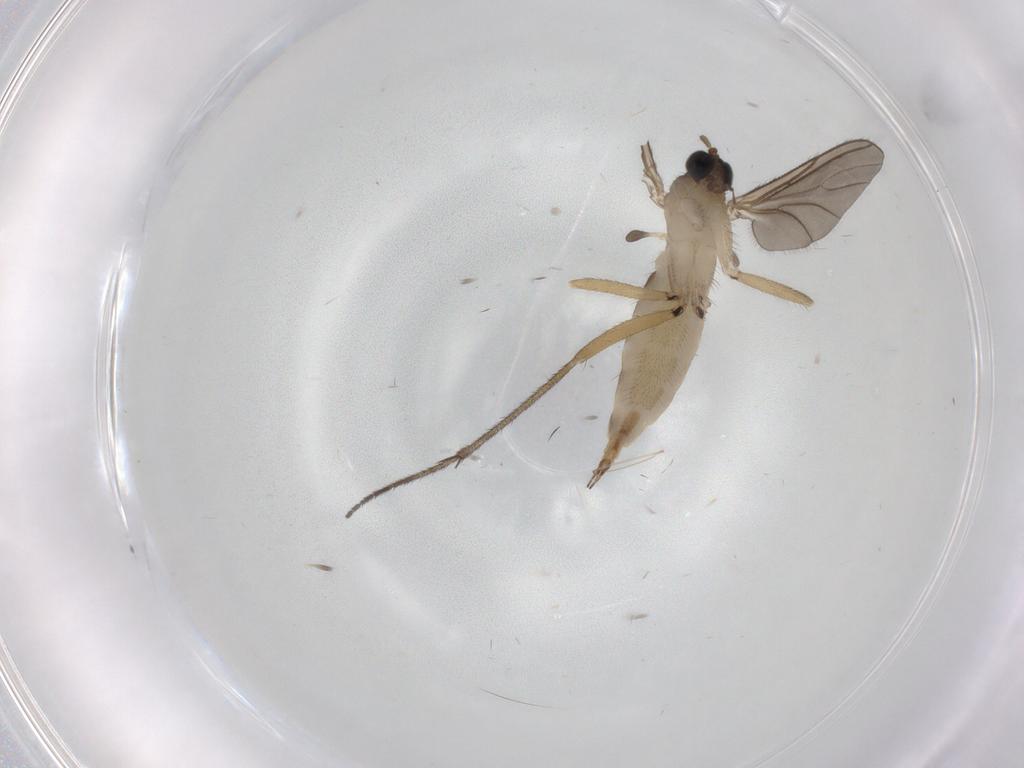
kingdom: Animalia
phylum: Arthropoda
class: Insecta
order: Diptera
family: Phoridae
